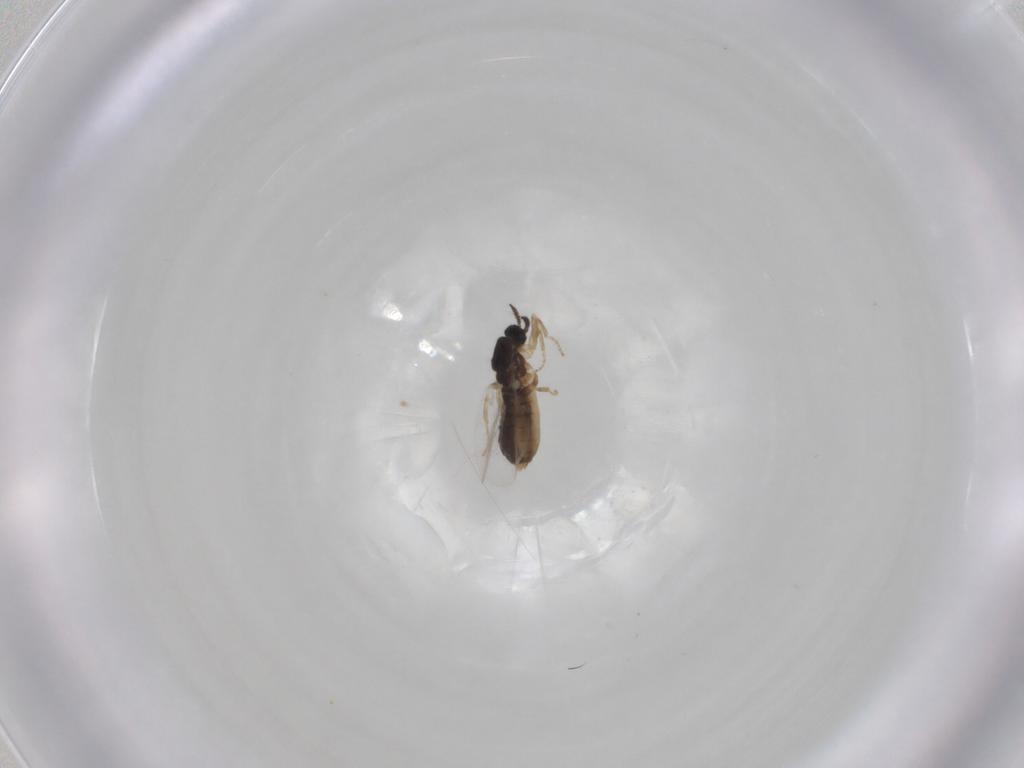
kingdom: Animalia
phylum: Arthropoda
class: Insecta
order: Diptera
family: Scatopsidae
